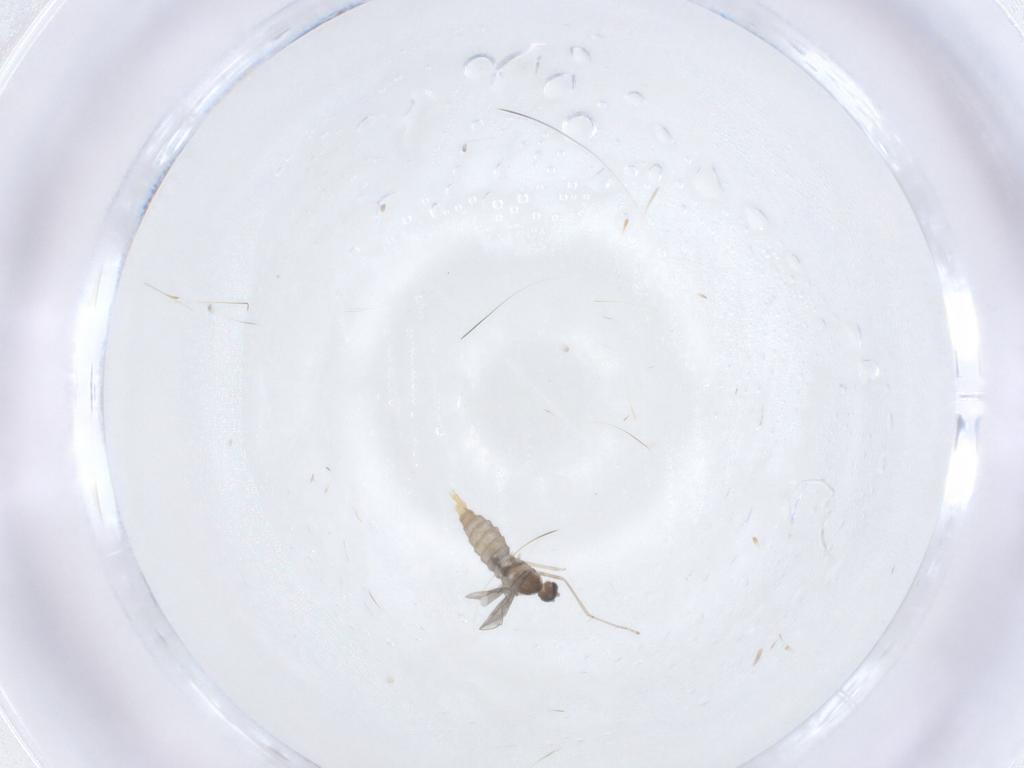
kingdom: Animalia
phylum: Arthropoda
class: Insecta
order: Diptera
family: Cecidomyiidae
